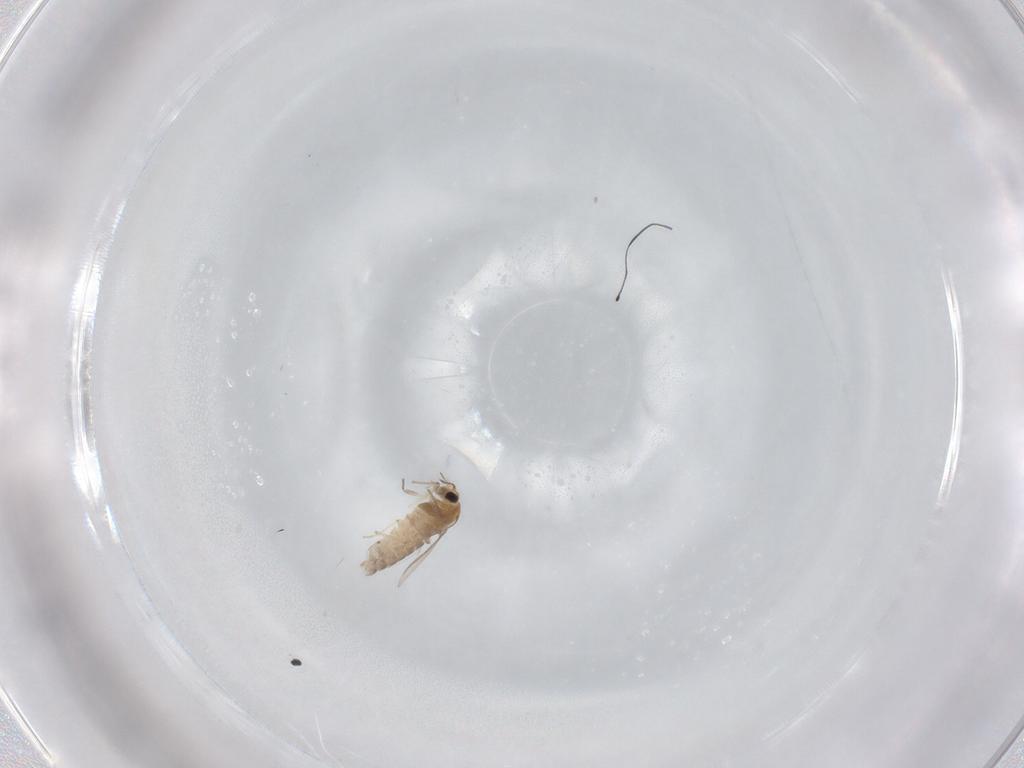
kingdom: Animalia
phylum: Arthropoda
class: Insecta
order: Diptera
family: Chironomidae
